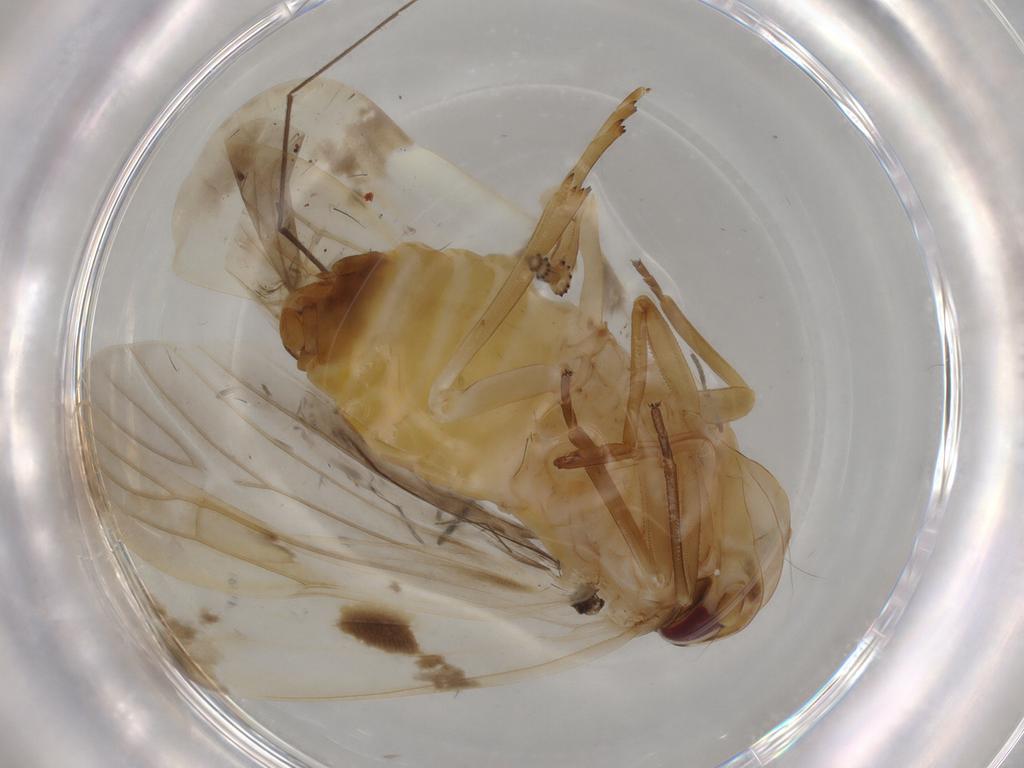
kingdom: Animalia
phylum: Arthropoda
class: Insecta
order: Hemiptera
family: Achilidae
